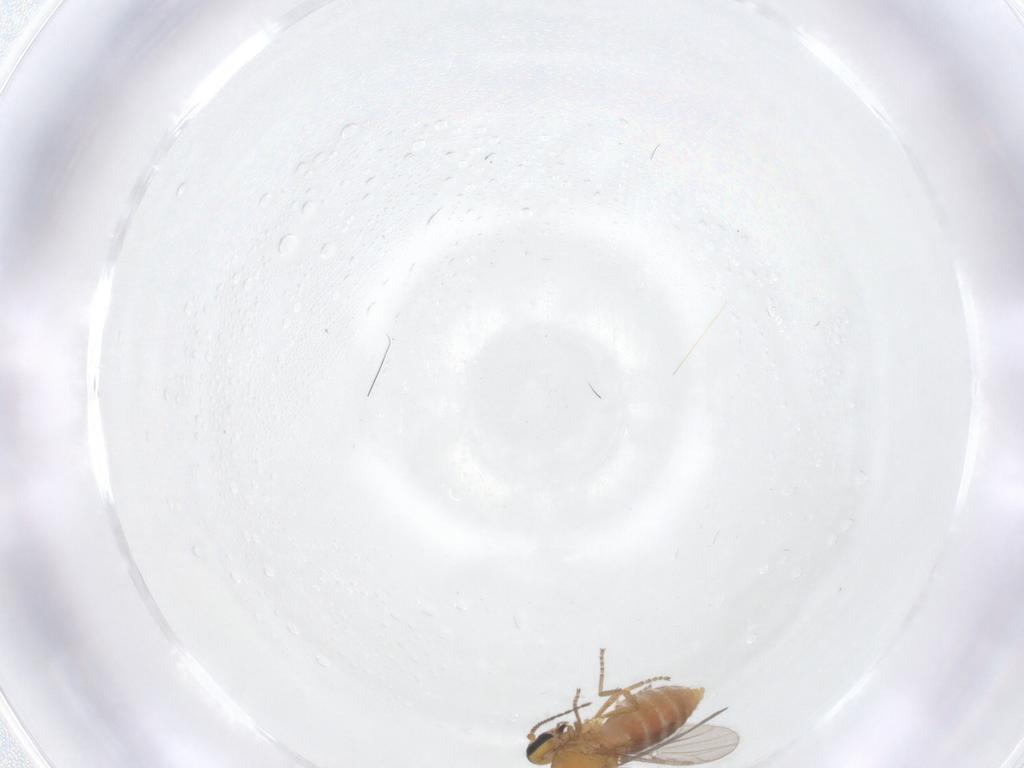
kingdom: Animalia
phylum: Arthropoda
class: Insecta
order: Diptera
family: Ceratopogonidae
